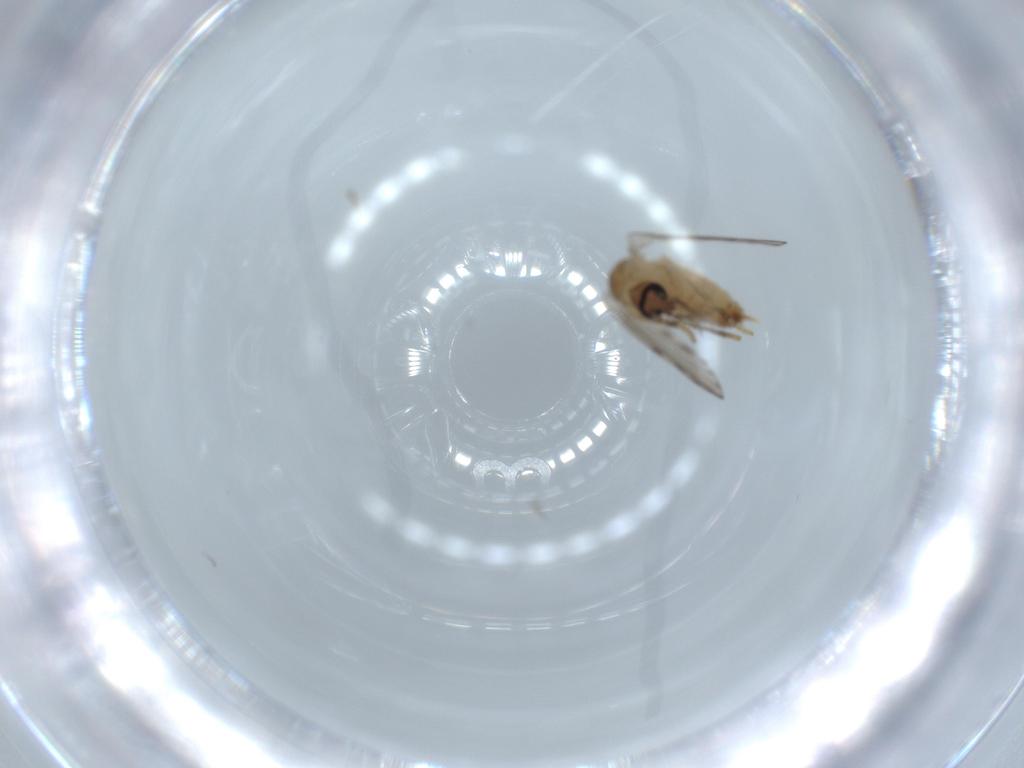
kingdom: Animalia
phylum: Arthropoda
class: Insecta
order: Diptera
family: Psychodidae
